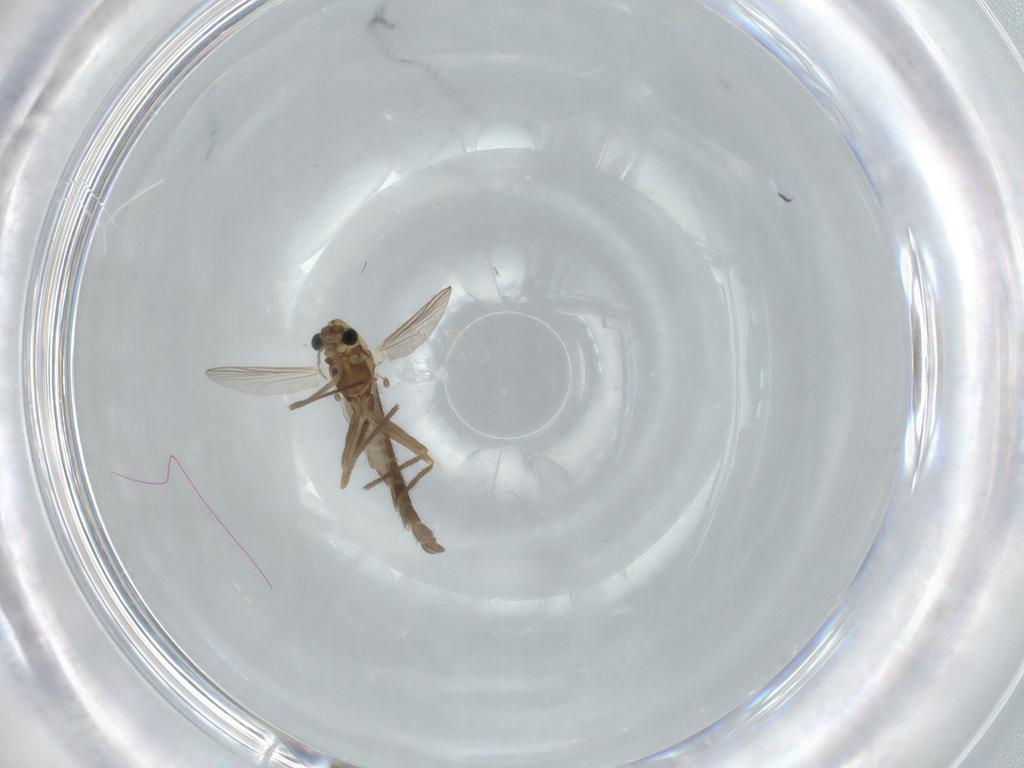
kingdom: Animalia
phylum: Arthropoda
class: Insecta
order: Diptera
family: Chironomidae
